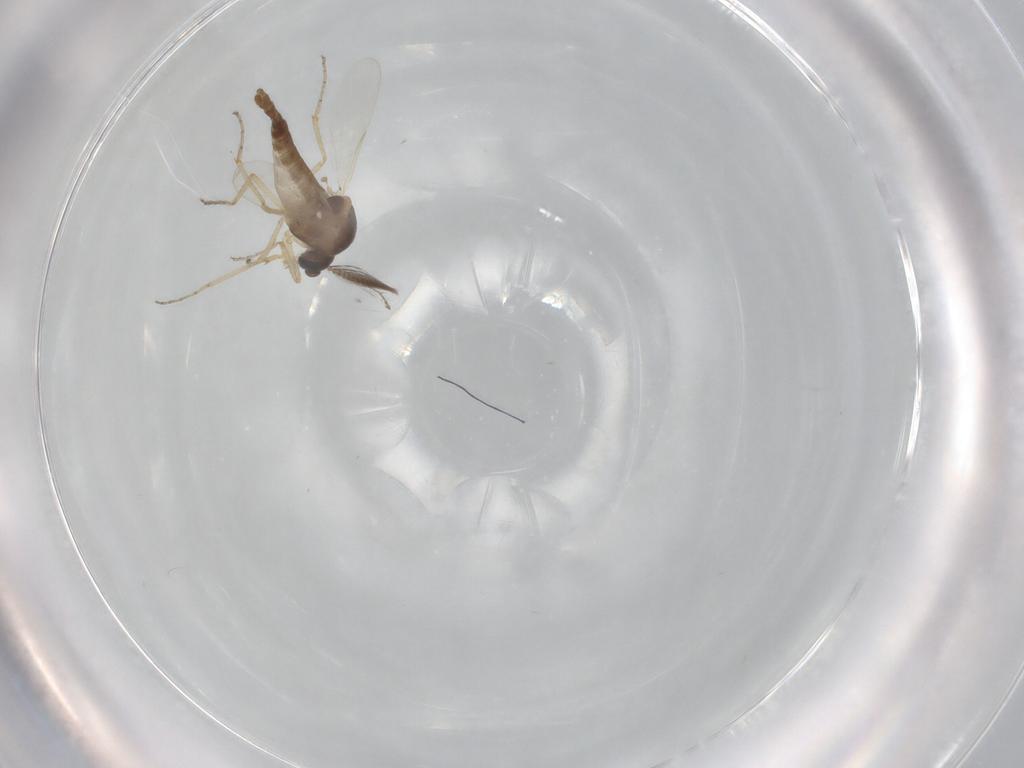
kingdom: Animalia
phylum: Arthropoda
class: Insecta
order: Diptera
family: Ceratopogonidae
